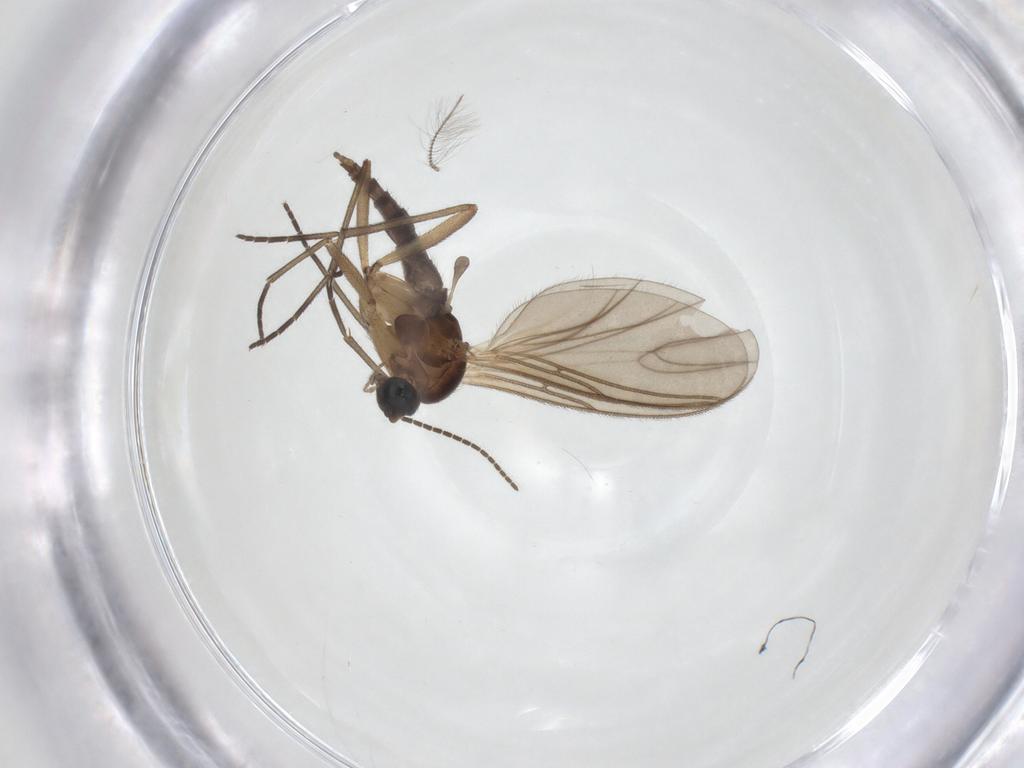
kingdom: Animalia
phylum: Arthropoda
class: Insecta
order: Diptera
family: Sciaridae
